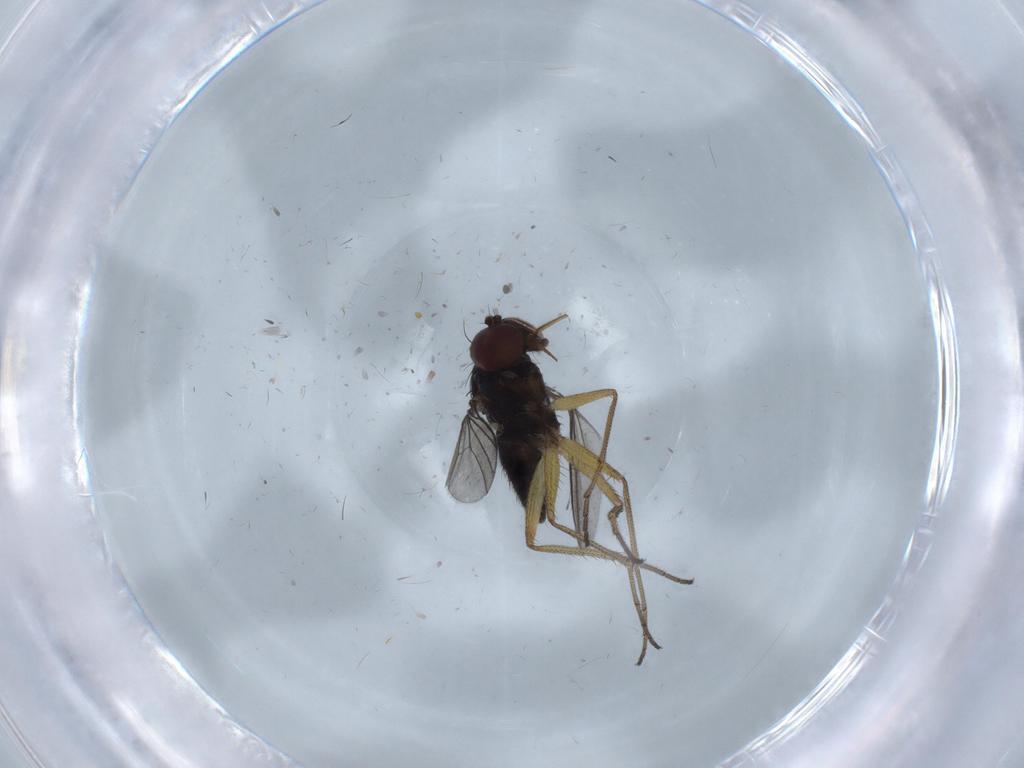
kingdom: Animalia
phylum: Arthropoda
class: Insecta
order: Diptera
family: Dolichopodidae
